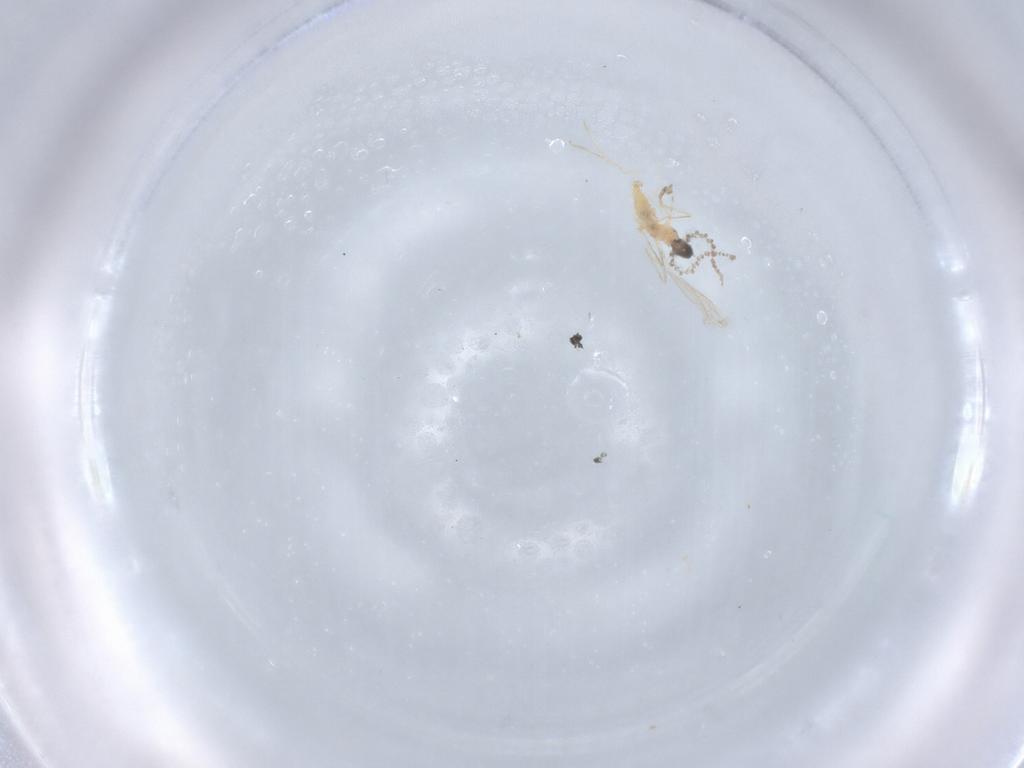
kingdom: Animalia
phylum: Arthropoda
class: Insecta
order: Diptera
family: Cecidomyiidae
